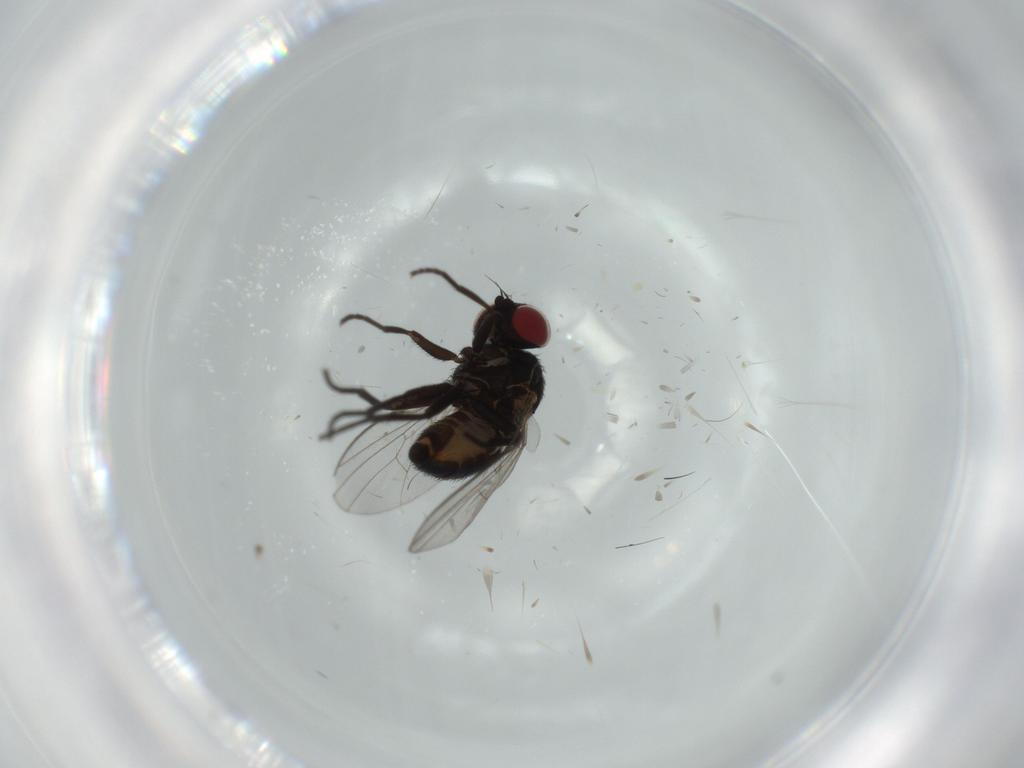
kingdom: Animalia
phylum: Arthropoda
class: Insecta
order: Diptera
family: Agromyzidae
